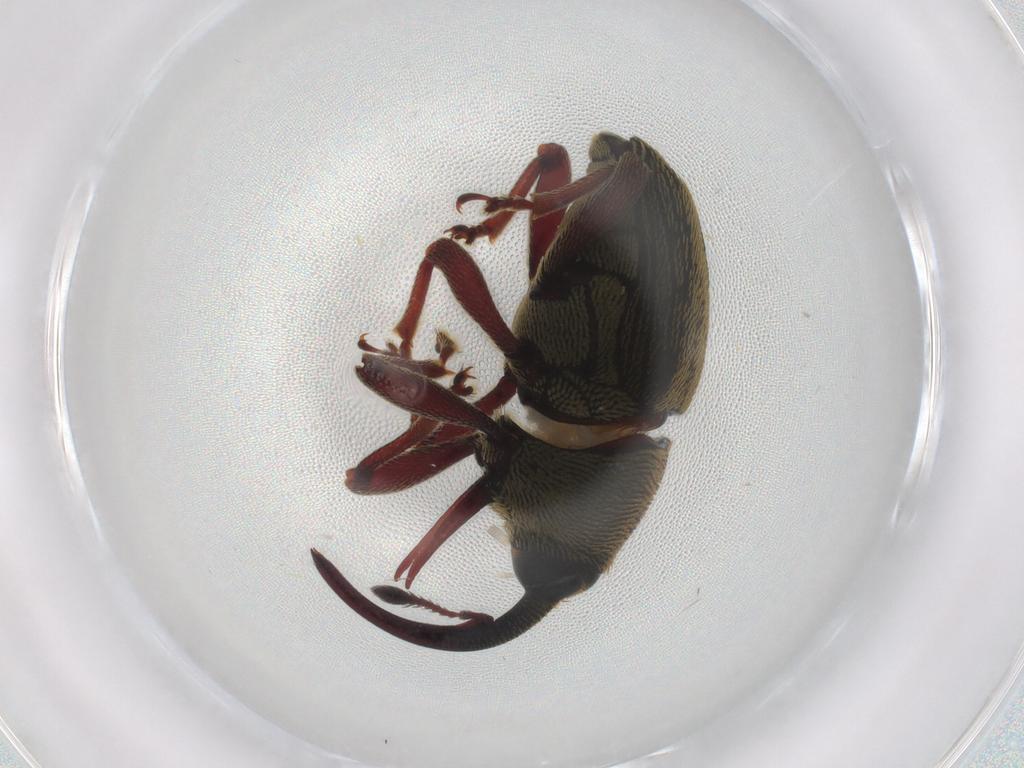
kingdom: Animalia
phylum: Arthropoda
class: Insecta
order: Coleoptera
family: Curculionidae
